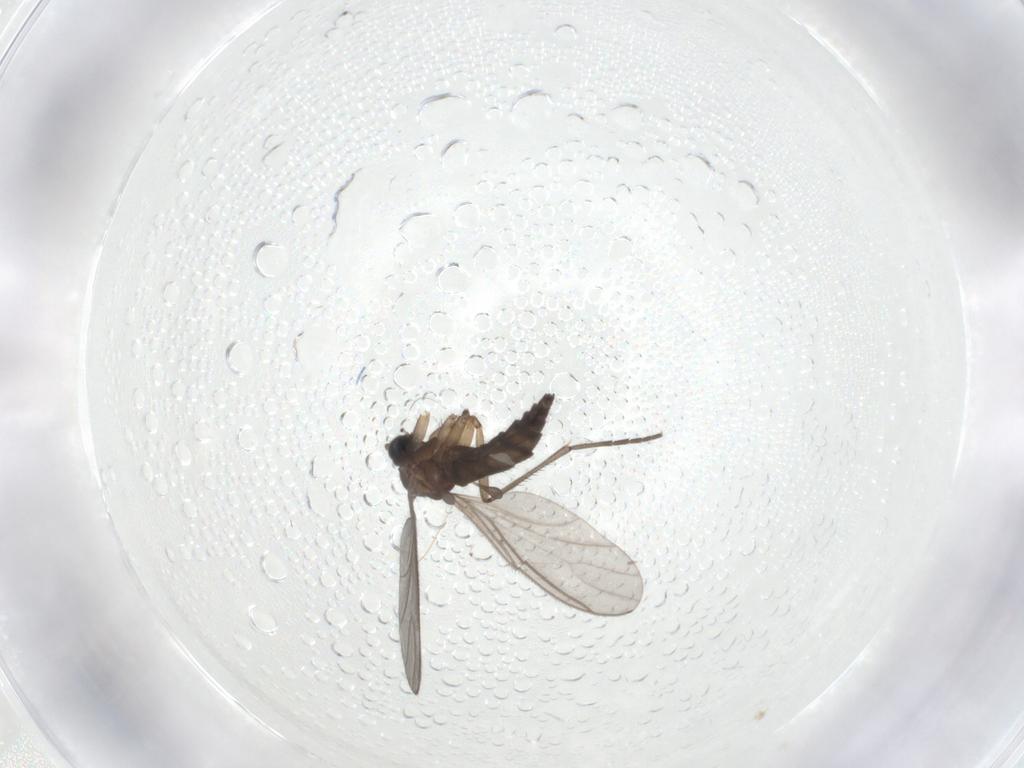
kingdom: Animalia
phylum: Arthropoda
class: Insecta
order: Diptera
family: Sciaridae
